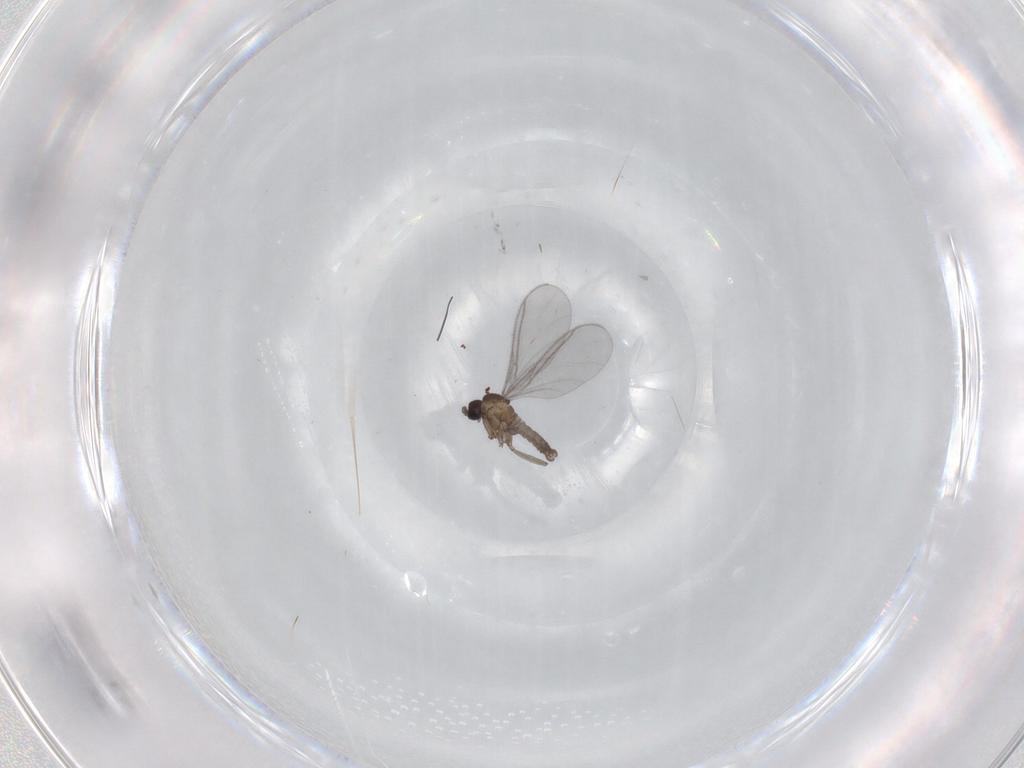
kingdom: Animalia
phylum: Arthropoda
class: Insecta
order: Diptera
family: Sciaridae
